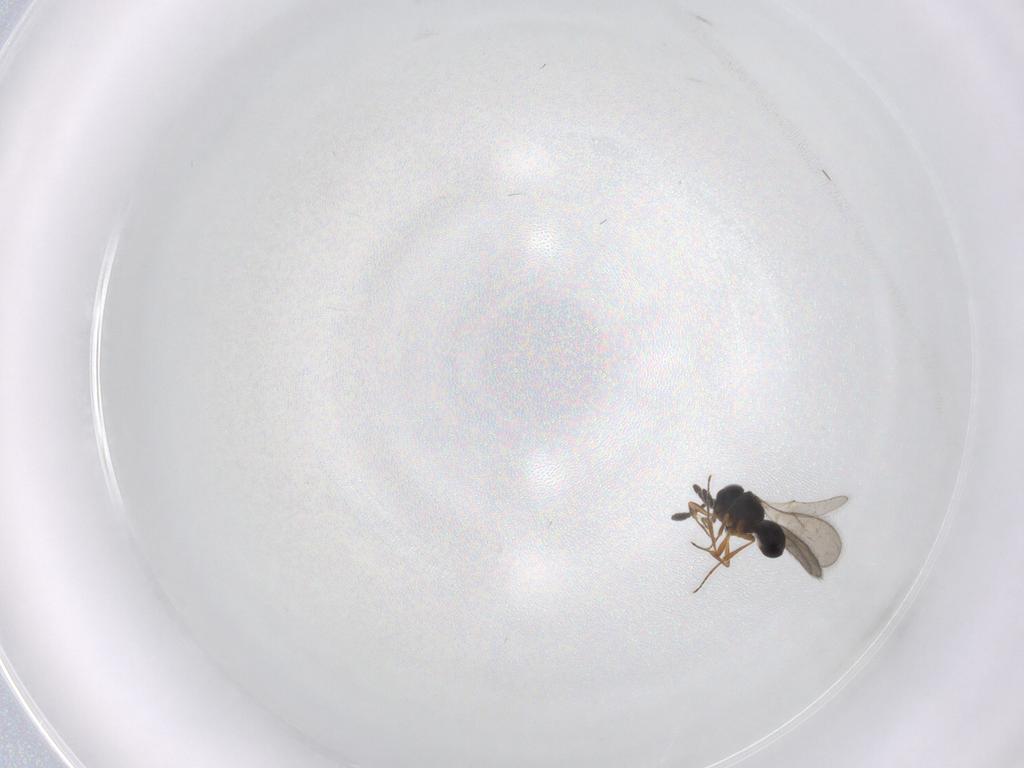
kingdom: Animalia
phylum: Arthropoda
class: Insecta
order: Hymenoptera
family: Scelionidae
